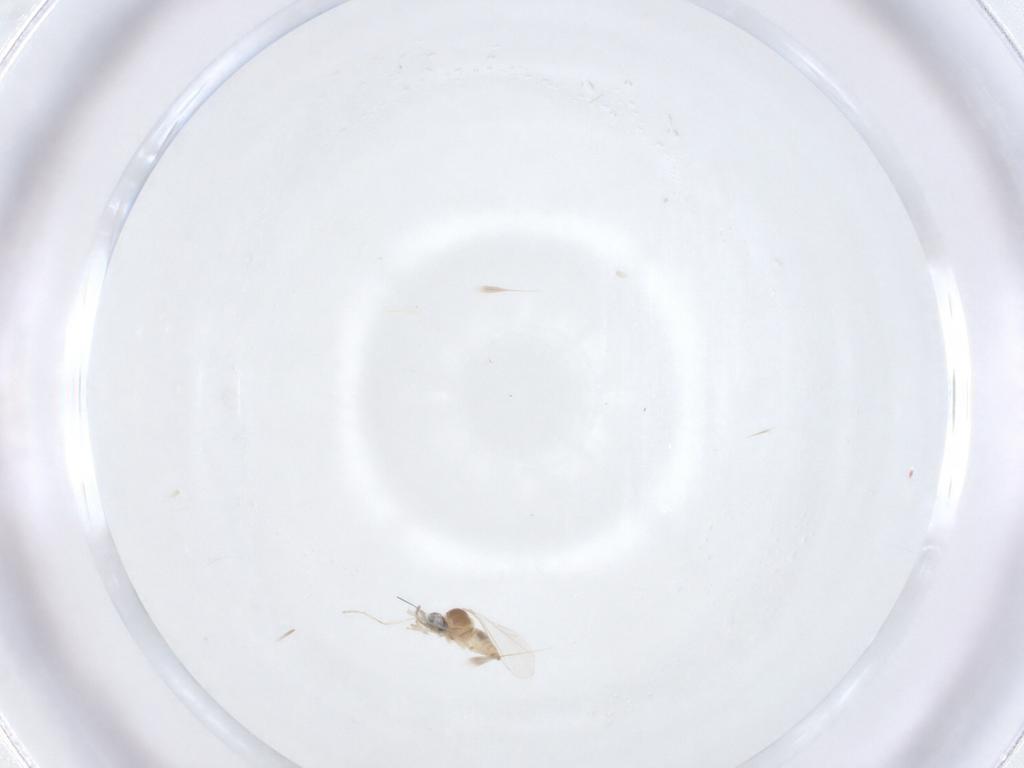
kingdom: Animalia
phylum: Arthropoda
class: Insecta
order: Diptera
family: Cecidomyiidae
